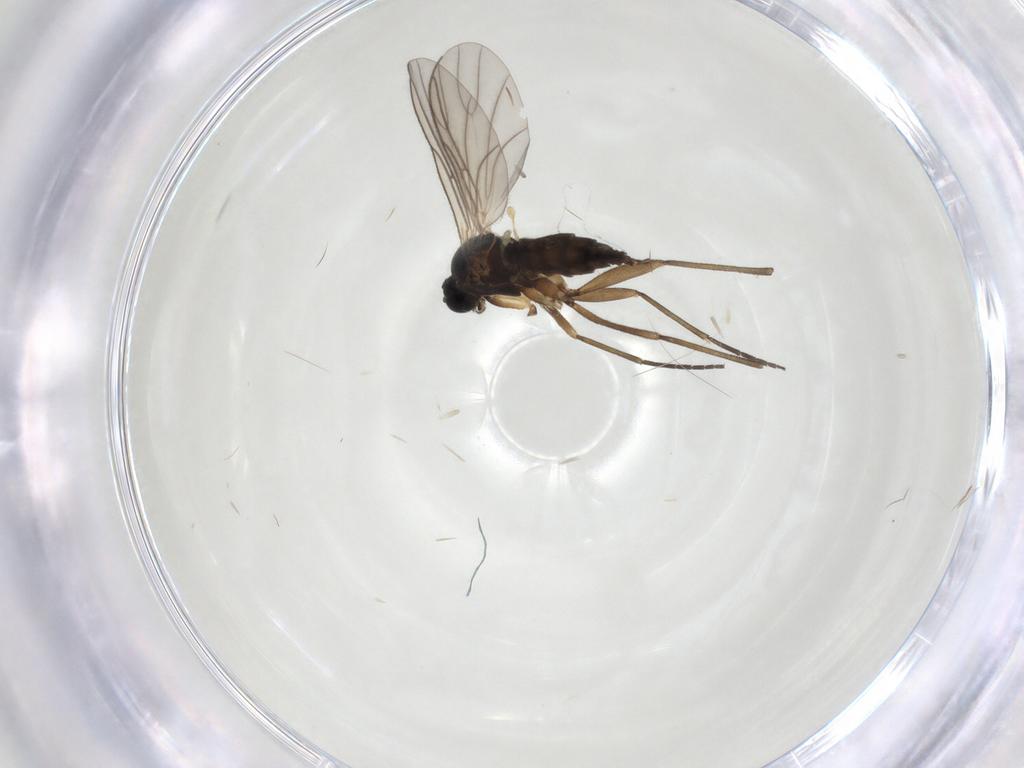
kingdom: Animalia
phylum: Arthropoda
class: Insecta
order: Diptera
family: Sciaridae
